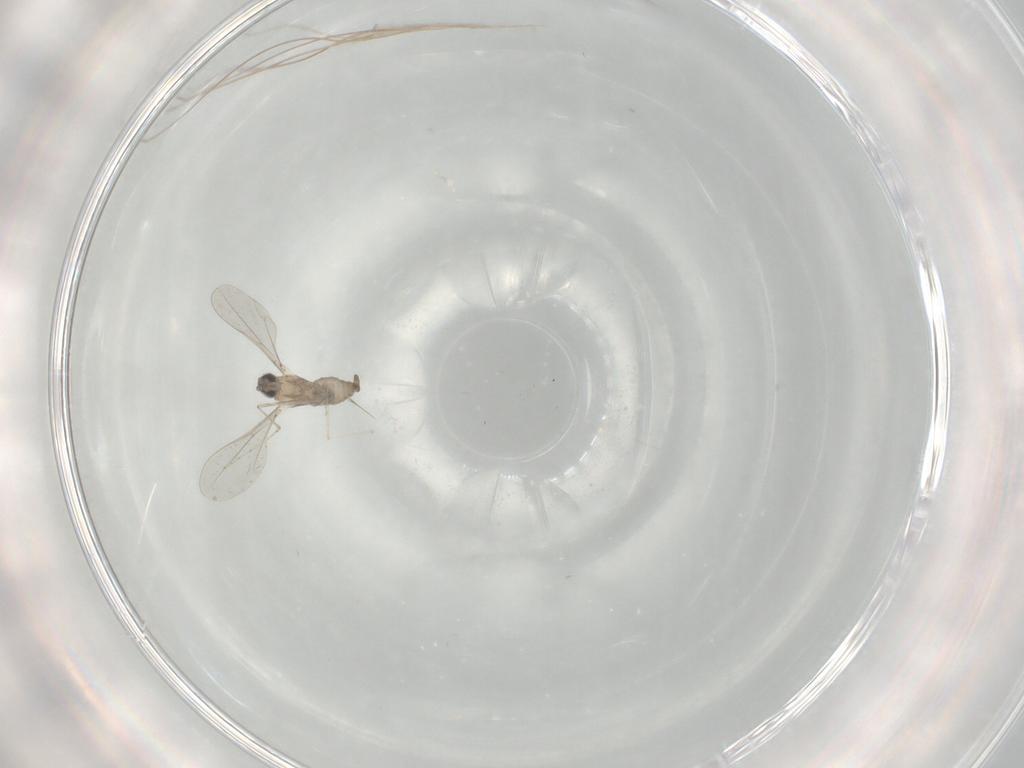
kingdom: Animalia
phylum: Arthropoda
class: Insecta
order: Diptera
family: Cecidomyiidae
